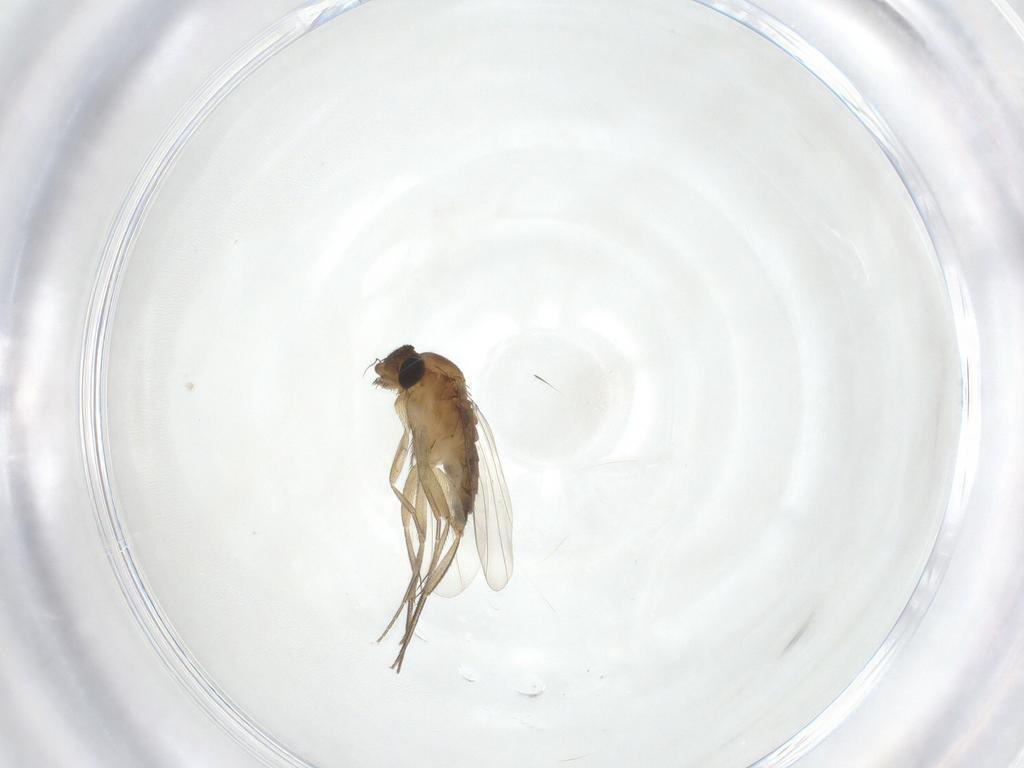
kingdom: Animalia
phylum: Arthropoda
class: Insecta
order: Diptera
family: Phoridae
